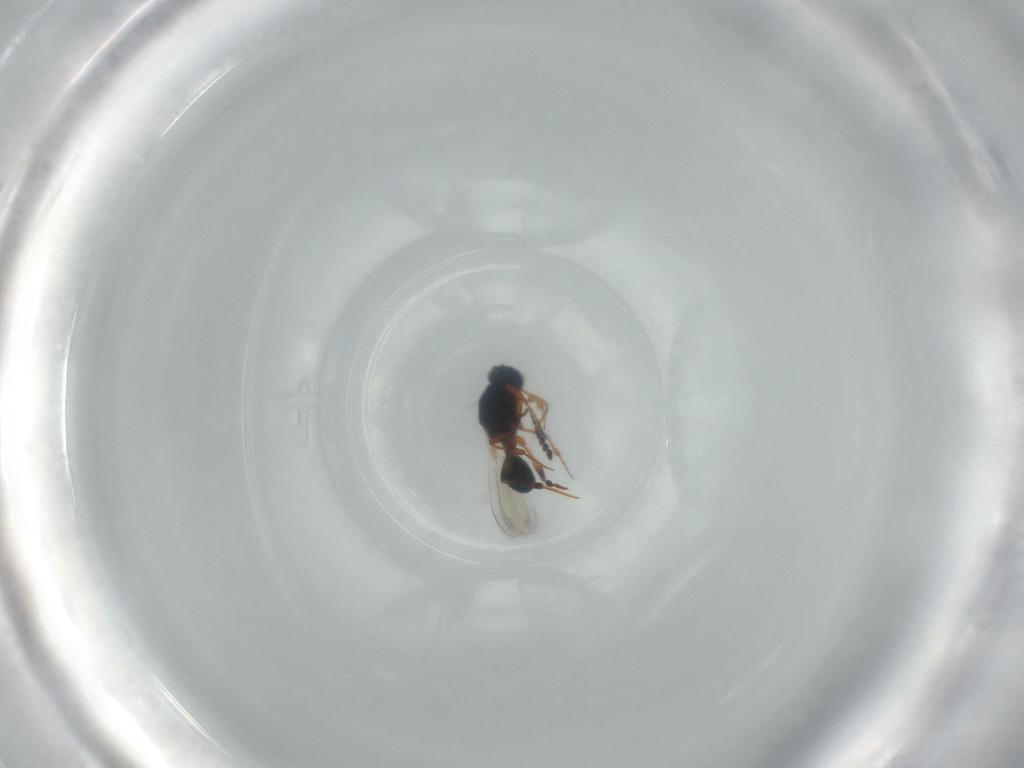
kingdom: Animalia
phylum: Arthropoda
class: Insecta
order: Hymenoptera
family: Platygastridae
